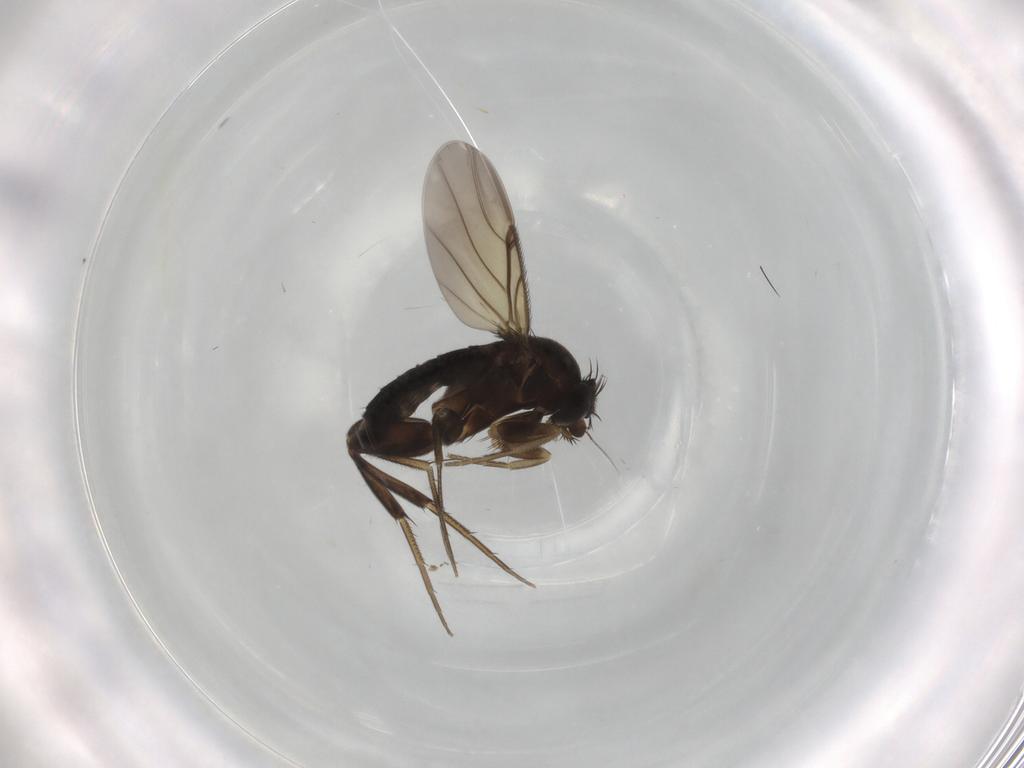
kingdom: Animalia
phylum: Arthropoda
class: Insecta
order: Diptera
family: Phoridae
